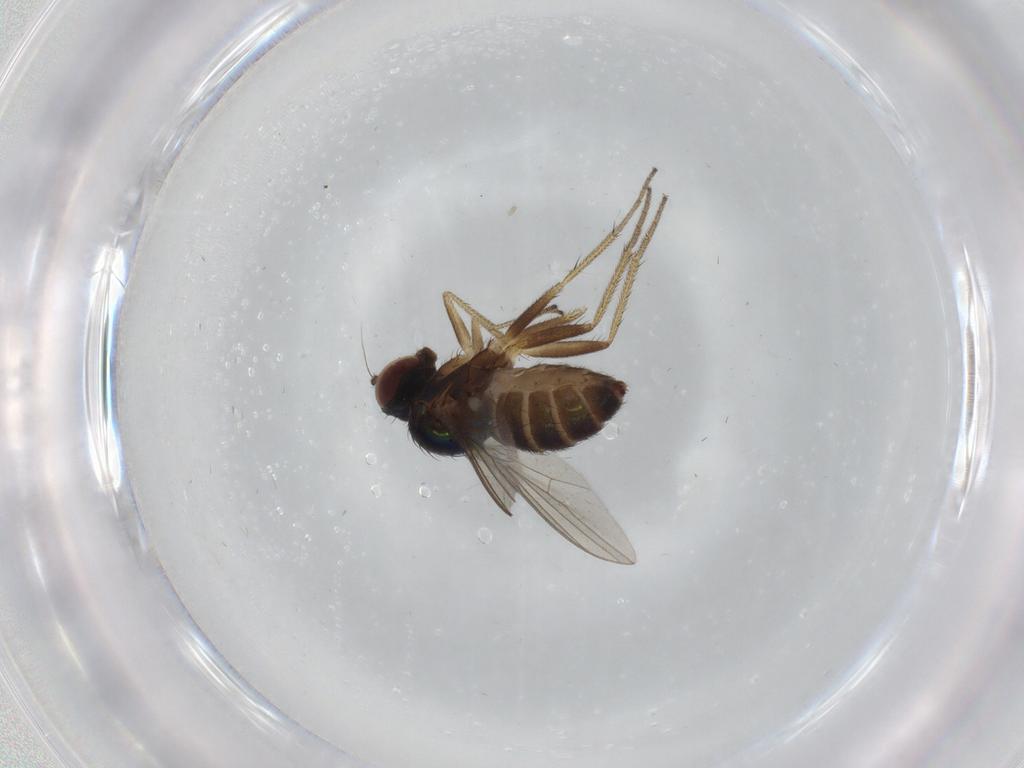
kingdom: Animalia
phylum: Arthropoda
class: Insecta
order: Diptera
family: Dolichopodidae
